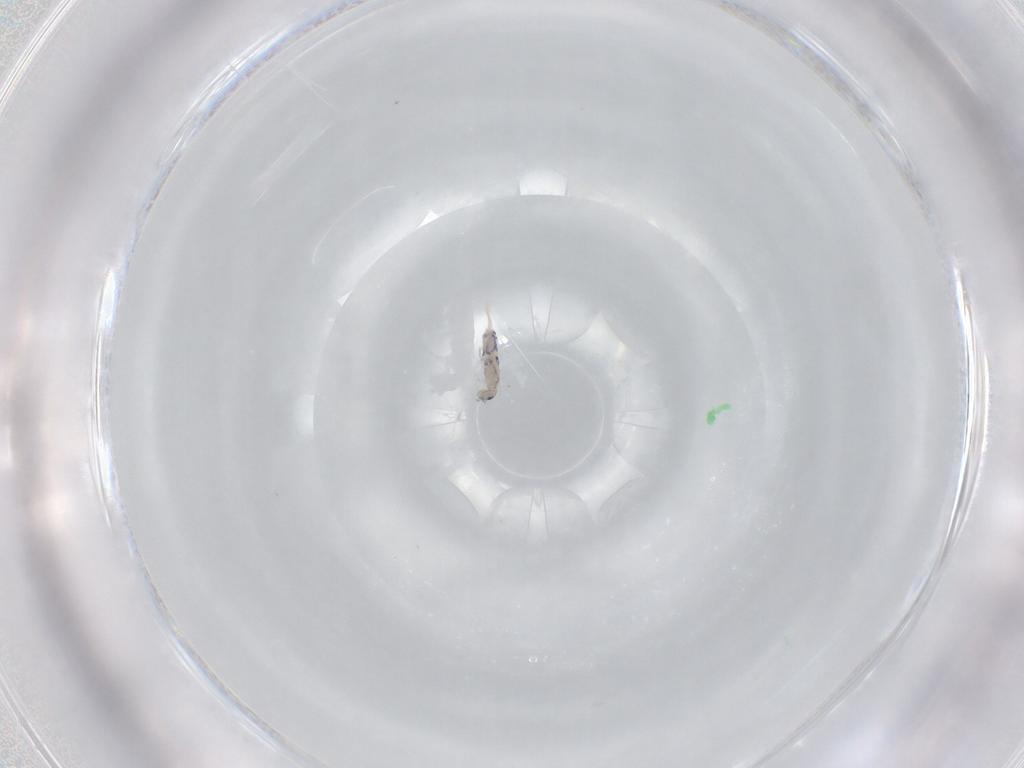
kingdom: Animalia
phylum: Arthropoda
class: Collembola
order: Entomobryomorpha
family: Entomobryidae
